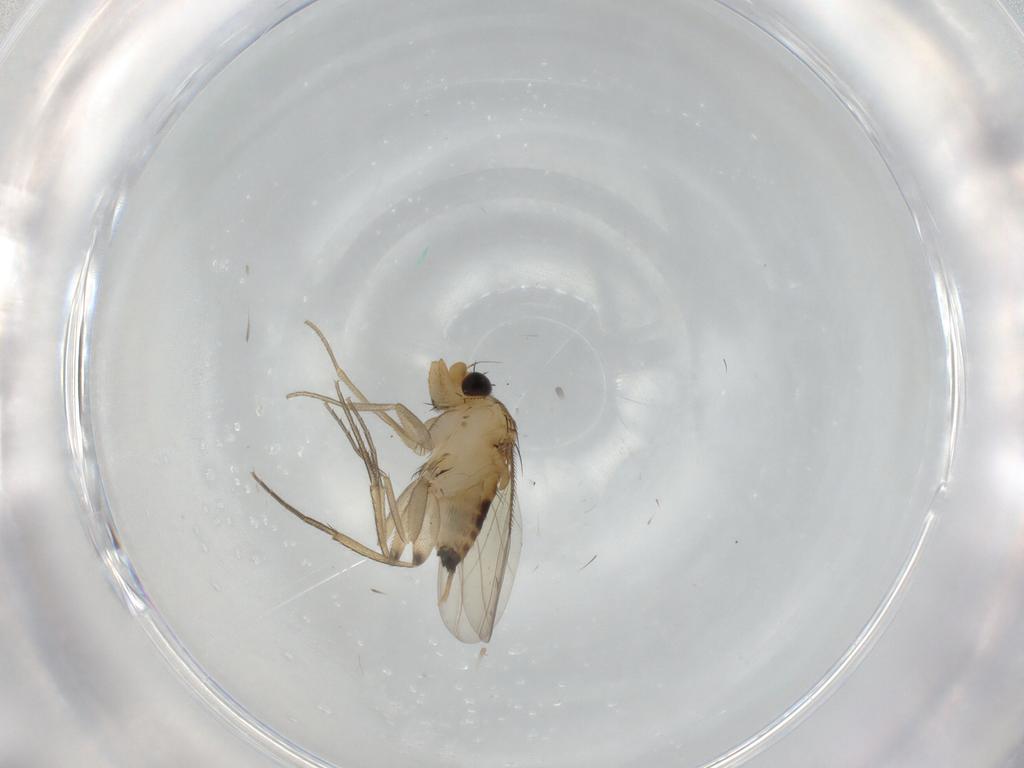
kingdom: Animalia
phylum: Arthropoda
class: Insecta
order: Diptera
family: Phoridae
